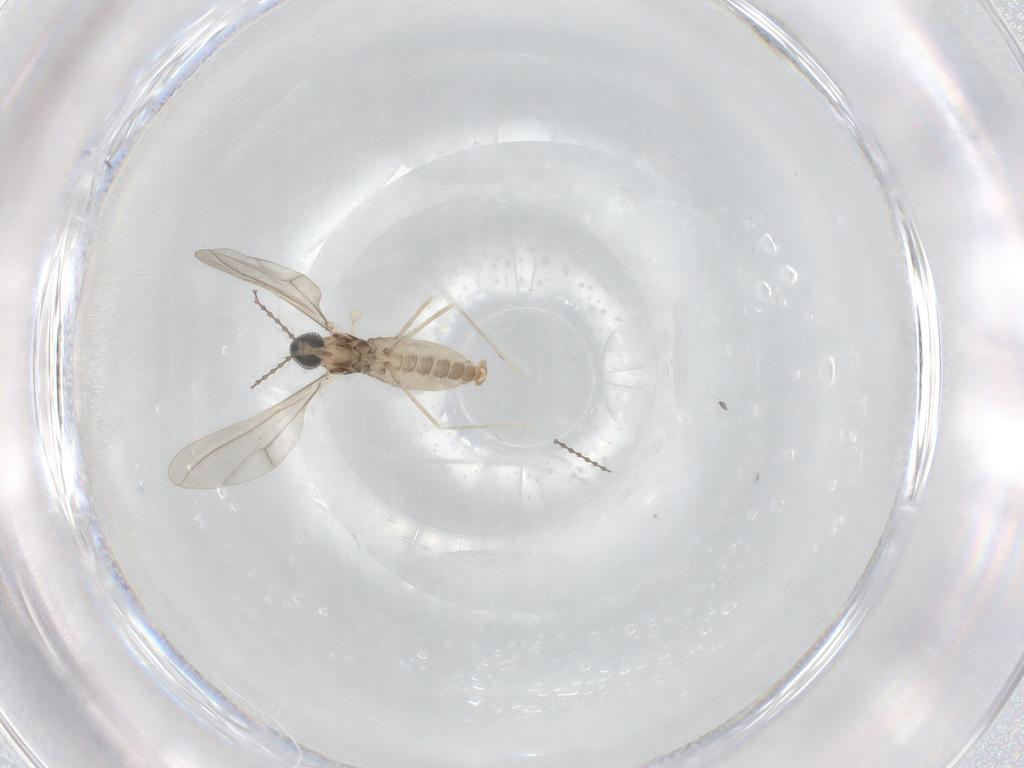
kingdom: Animalia
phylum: Arthropoda
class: Insecta
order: Diptera
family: Cecidomyiidae
